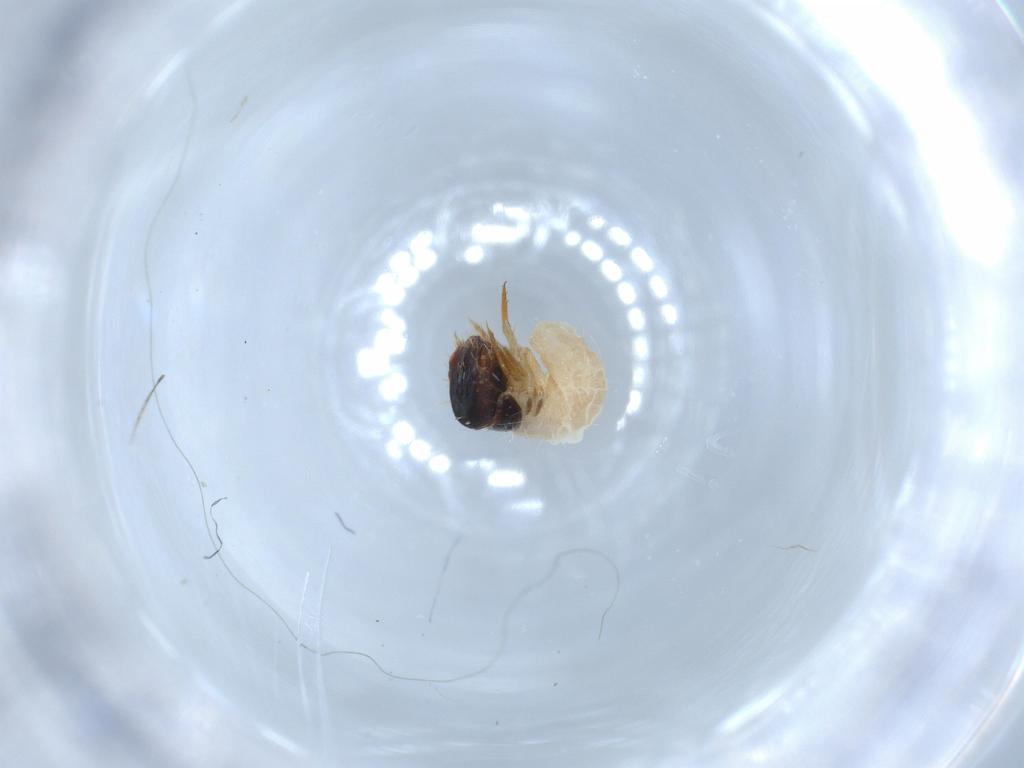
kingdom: Animalia
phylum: Arthropoda
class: Insecta
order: Coleoptera
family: Chrysomelidae
